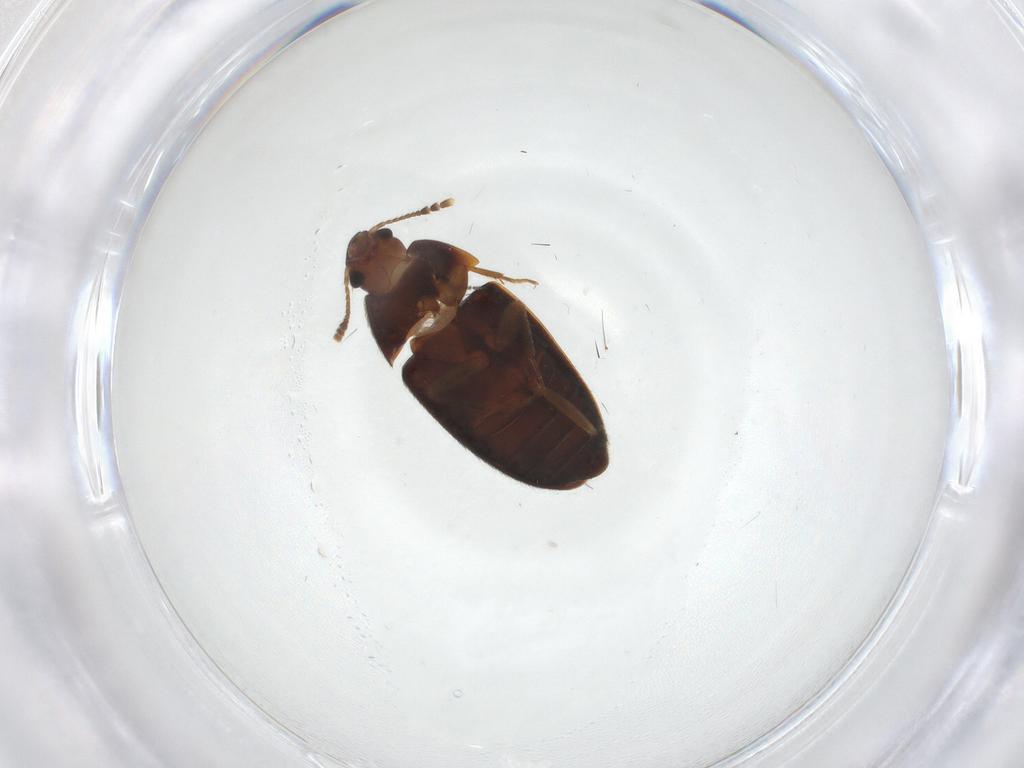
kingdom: Animalia
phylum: Arthropoda
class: Insecta
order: Coleoptera
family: Mycetophagidae
